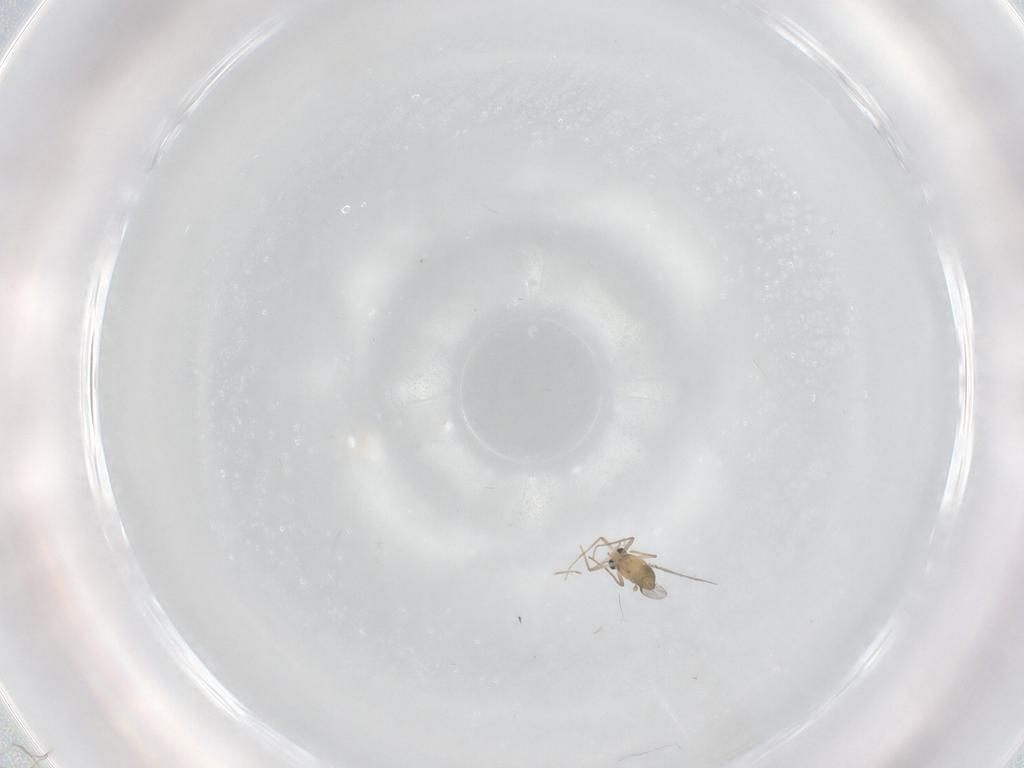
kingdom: Animalia
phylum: Arthropoda
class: Insecta
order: Diptera
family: Chironomidae
